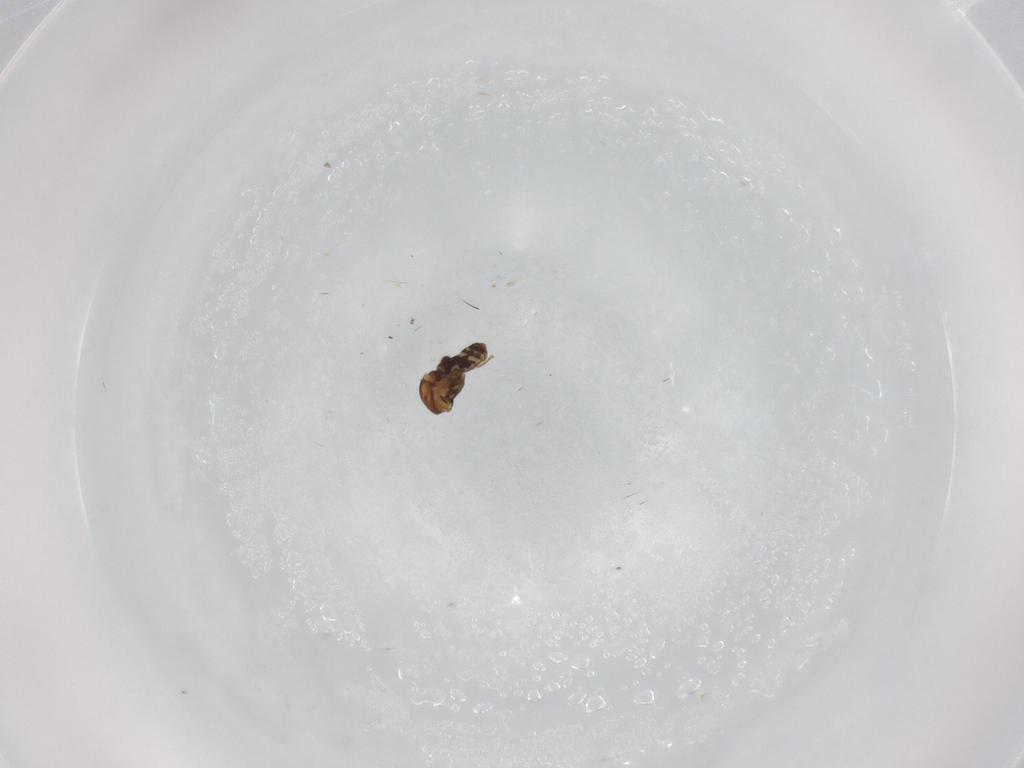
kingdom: Animalia
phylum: Arthropoda
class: Insecta
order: Diptera
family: Ceratopogonidae
